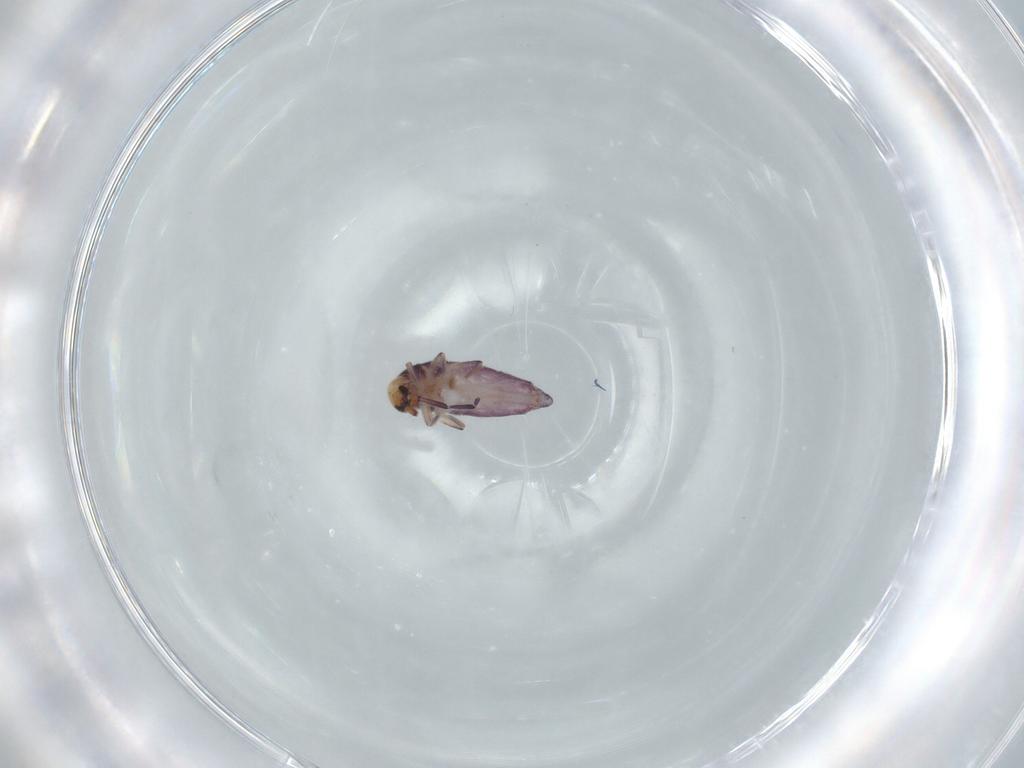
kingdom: Animalia
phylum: Arthropoda
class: Collembola
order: Entomobryomorpha
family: Entomobryidae
